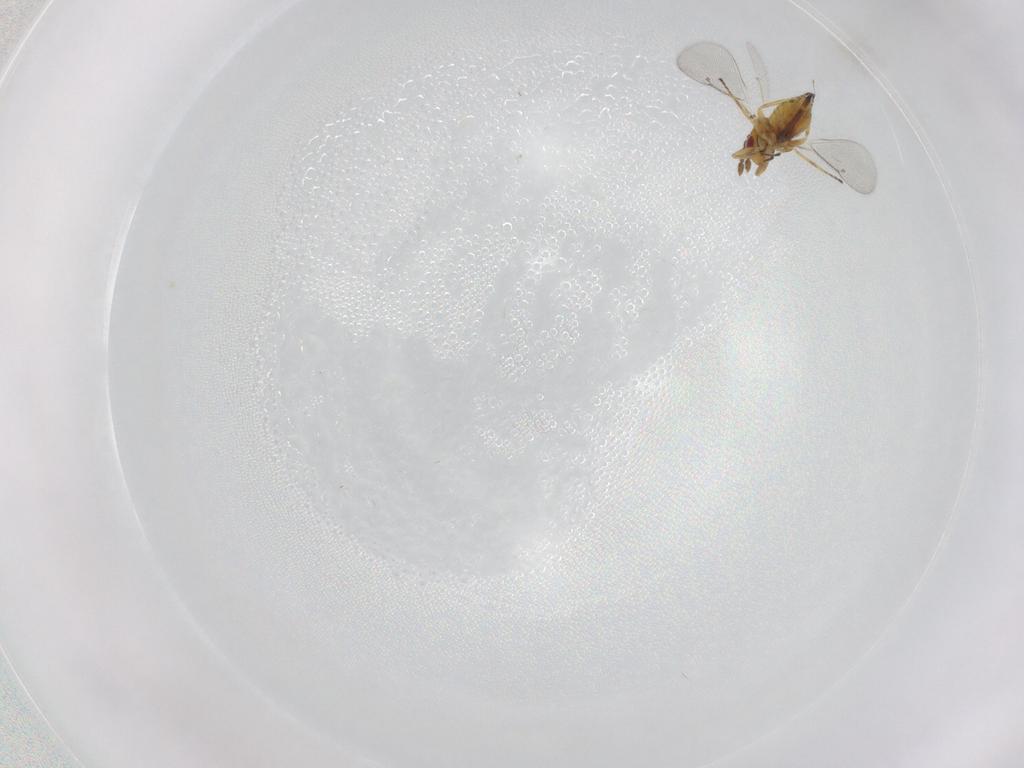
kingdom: Animalia
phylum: Arthropoda
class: Insecta
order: Hymenoptera
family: Eulophidae
